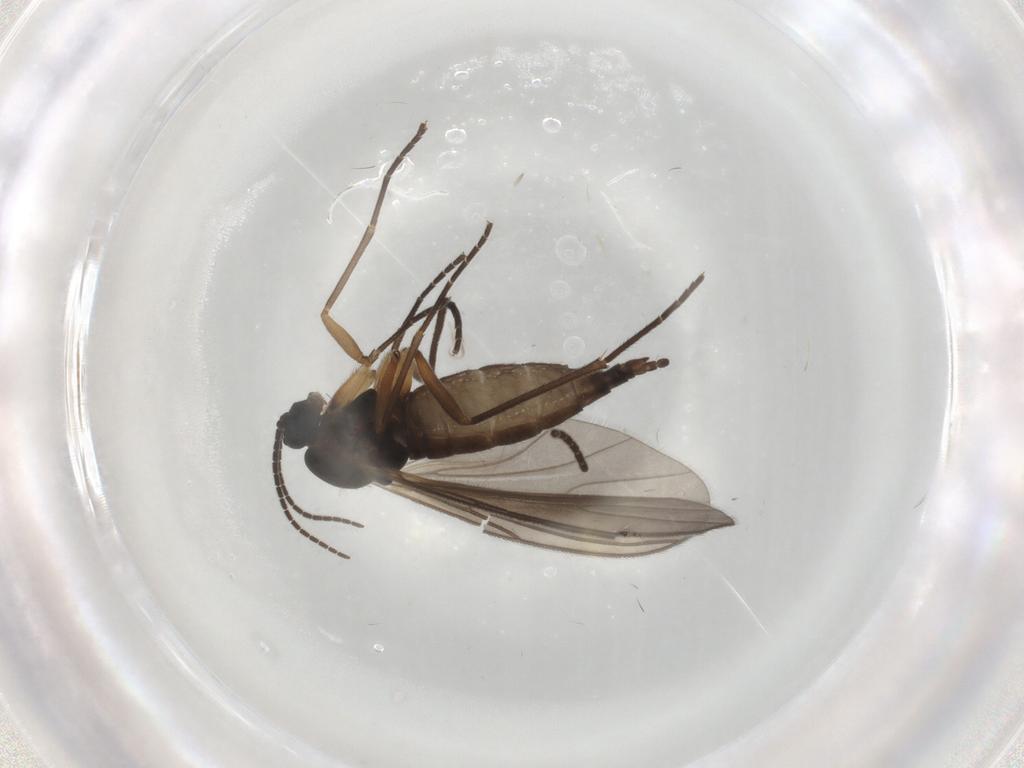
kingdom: Animalia
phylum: Arthropoda
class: Insecta
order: Diptera
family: Sciaridae
